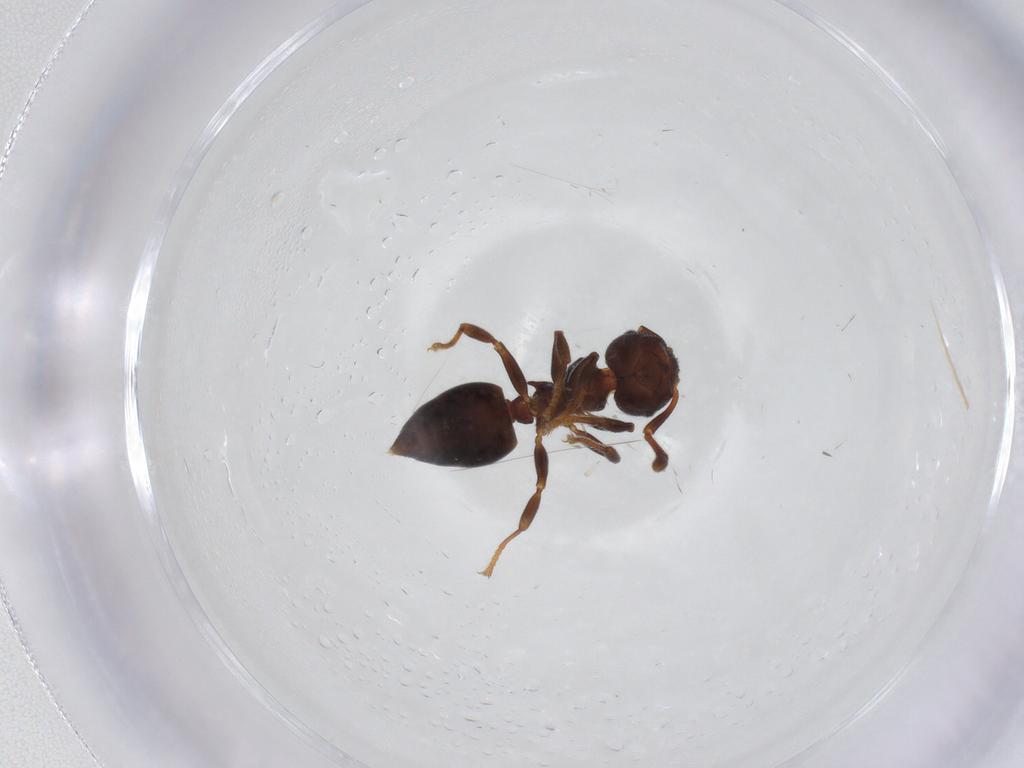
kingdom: Animalia
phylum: Arthropoda
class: Insecta
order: Hymenoptera
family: Formicidae
